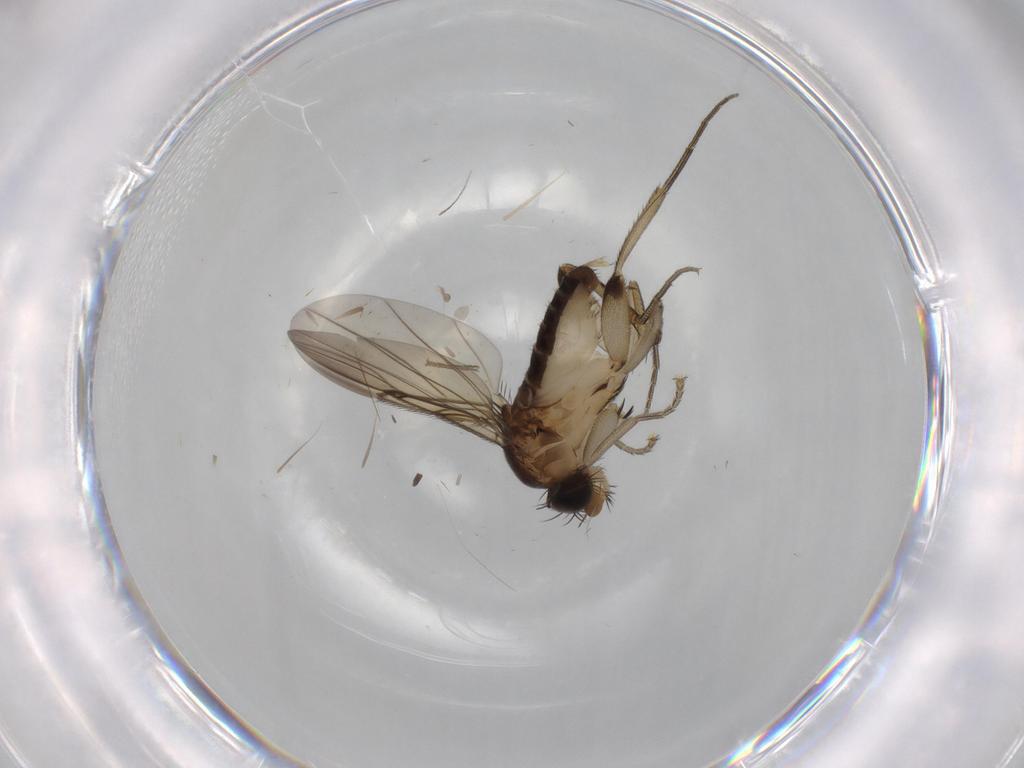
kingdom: Animalia
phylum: Arthropoda
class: Insecta
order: Diptera
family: Phoridae
